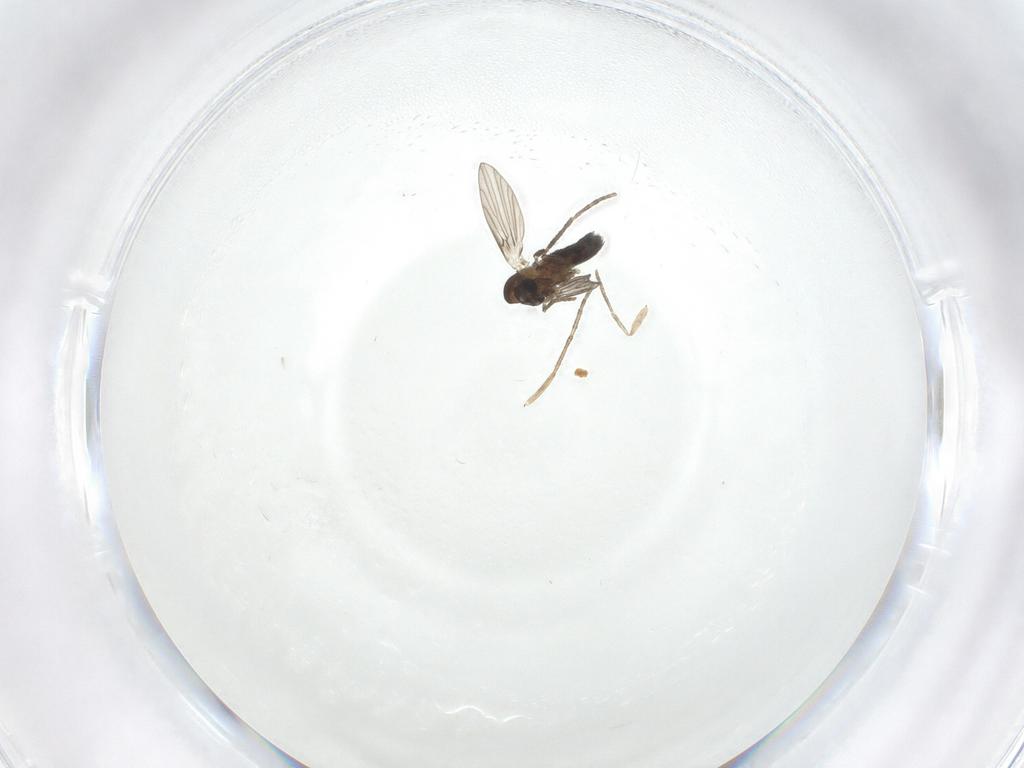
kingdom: Animalia
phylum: Arthropoda
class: Insecta
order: Diptera
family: Psychodidae
